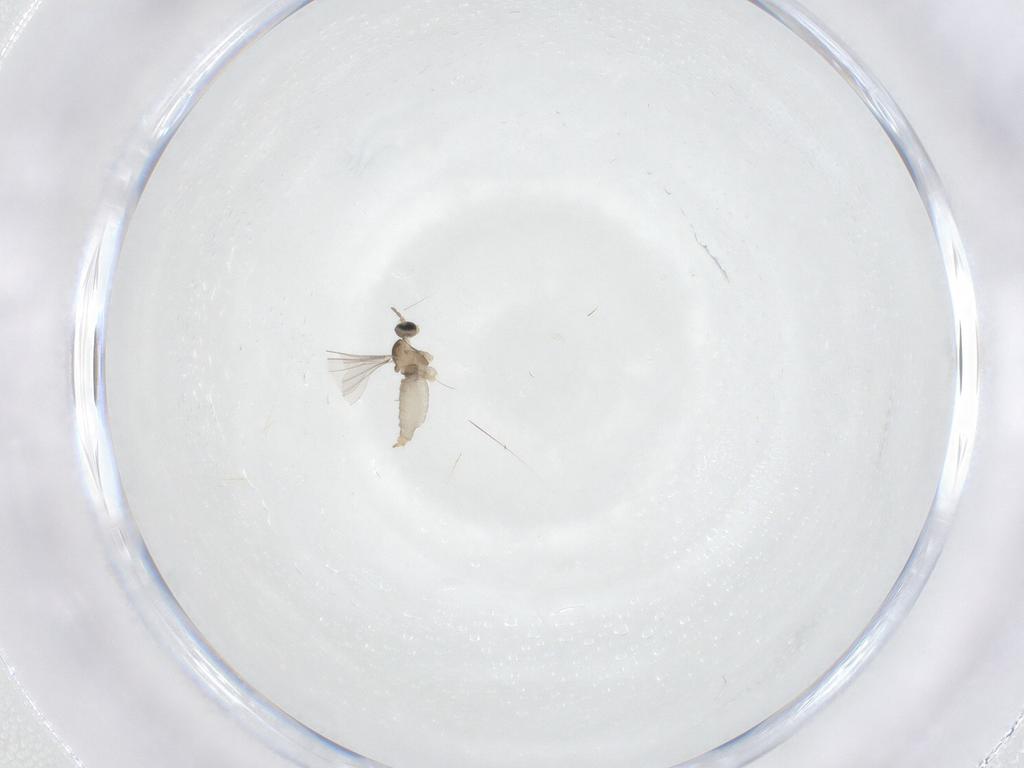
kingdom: Animalia
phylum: Arthropoda
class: Insecta
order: Diptera
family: Cecidomyiidae
